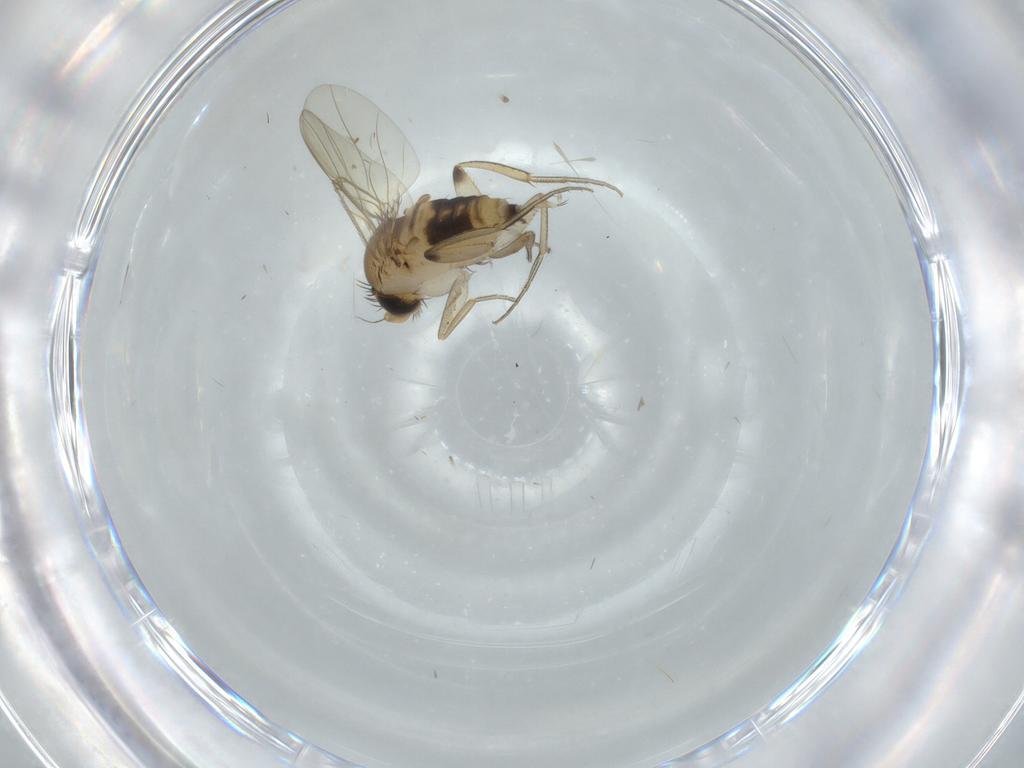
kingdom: Animalia
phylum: Arthropoda
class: Insecta
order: Diptera
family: Phoridae
